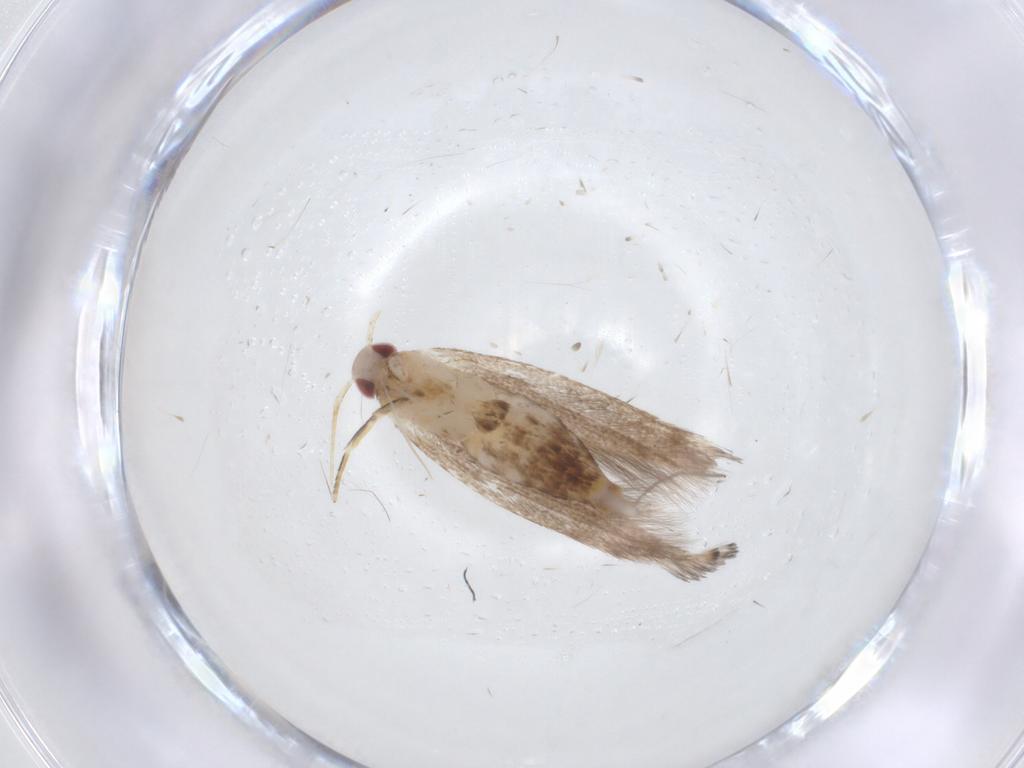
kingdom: Animalia
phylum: Arthropoda
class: Insecta
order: Lepidoptera
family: Cosmopterigidae
